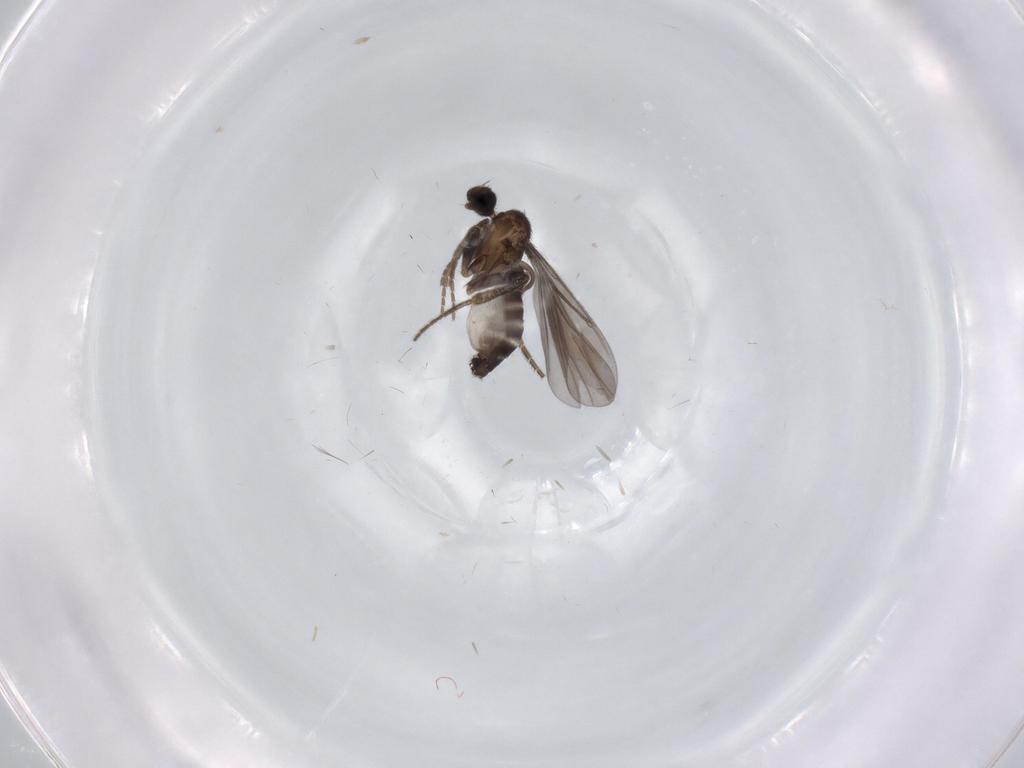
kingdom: Animalia
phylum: Arthropoda
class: Insecta
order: Diptera
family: Phoridae
